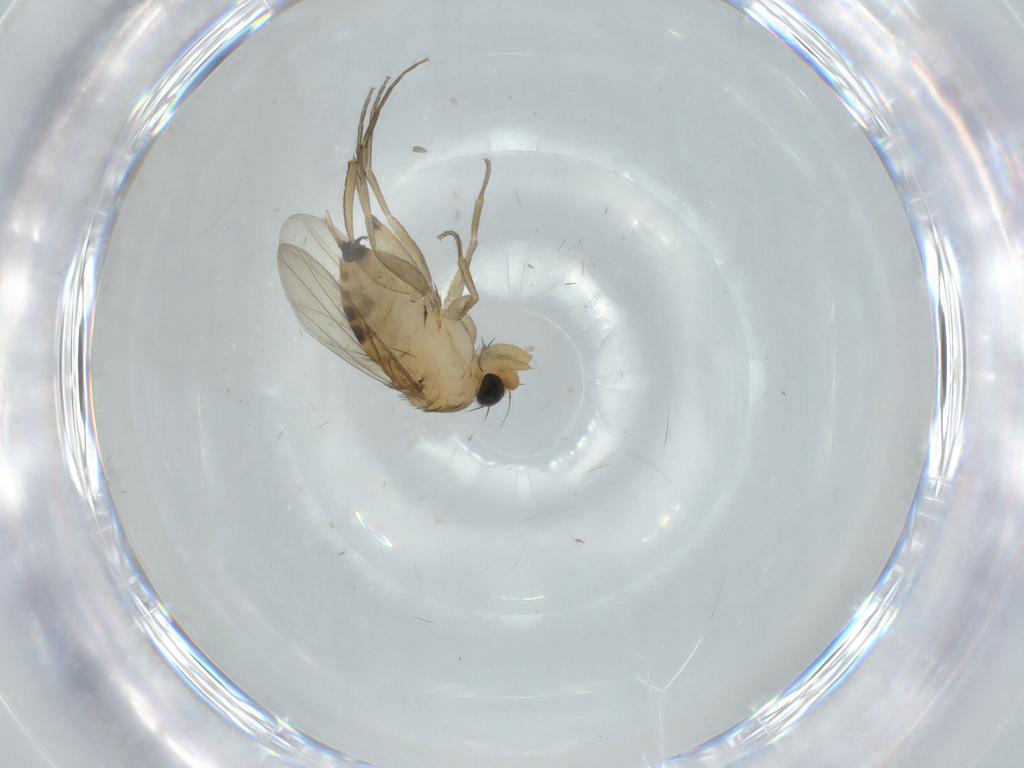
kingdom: Animalia
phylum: Arthropoda
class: Insecta
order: Diptera
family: Phoridae
